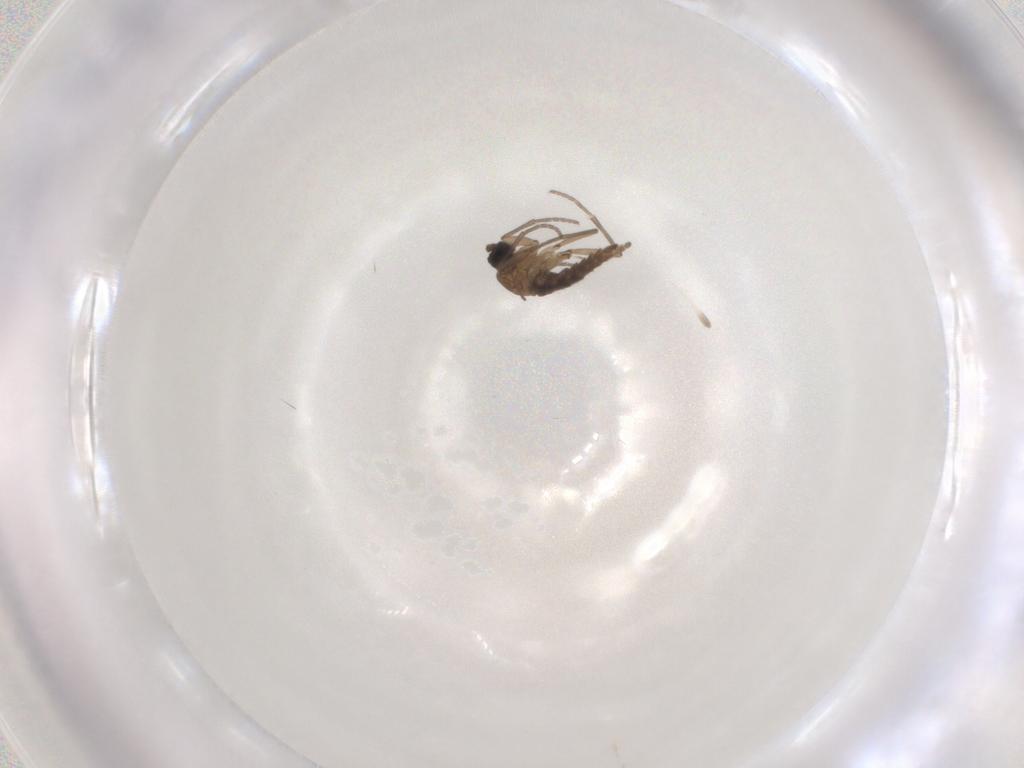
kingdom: Animalia
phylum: Arthropoda
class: Insecta
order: Diptera
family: Sciaridae
